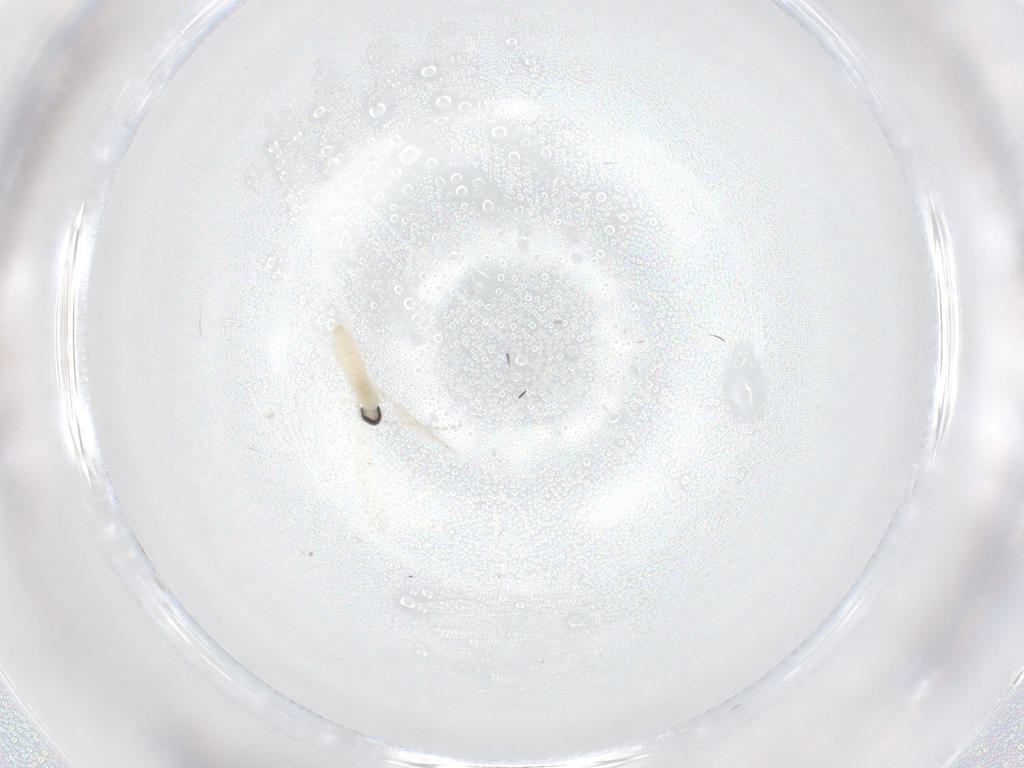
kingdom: Animalia
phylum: Arthropoda
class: Insecta
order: Diptera
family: Cecidomyiidae
